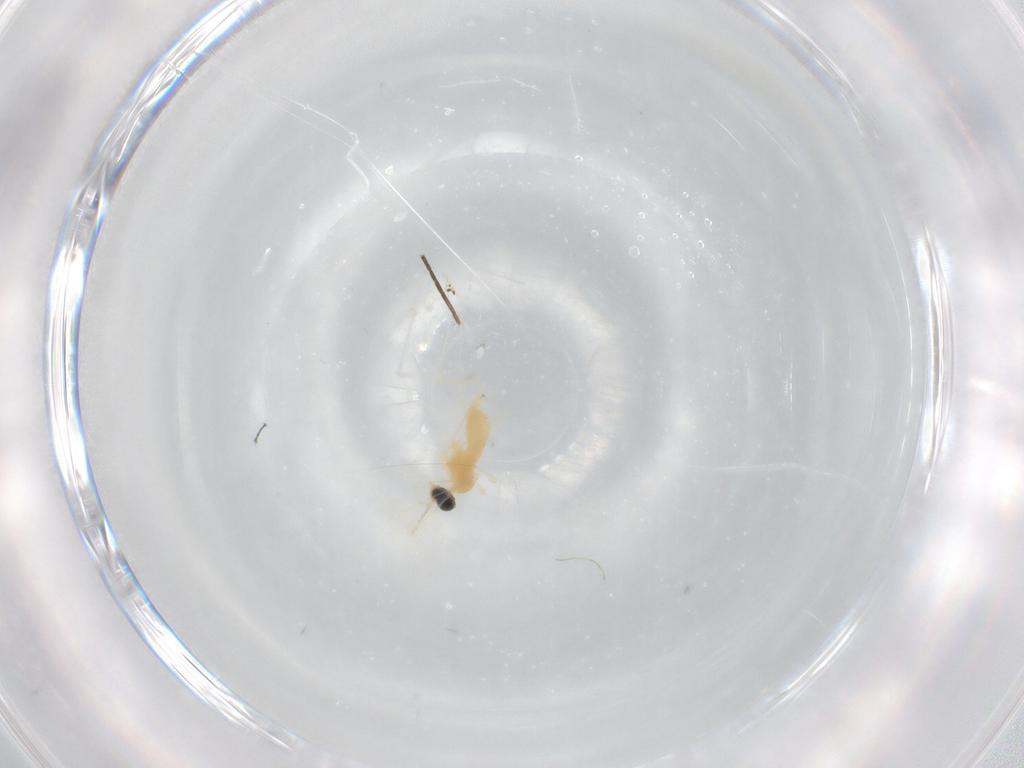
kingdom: Animalia
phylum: Arthropoda
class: Insecta
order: Diptera
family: Cecidomyiidae
